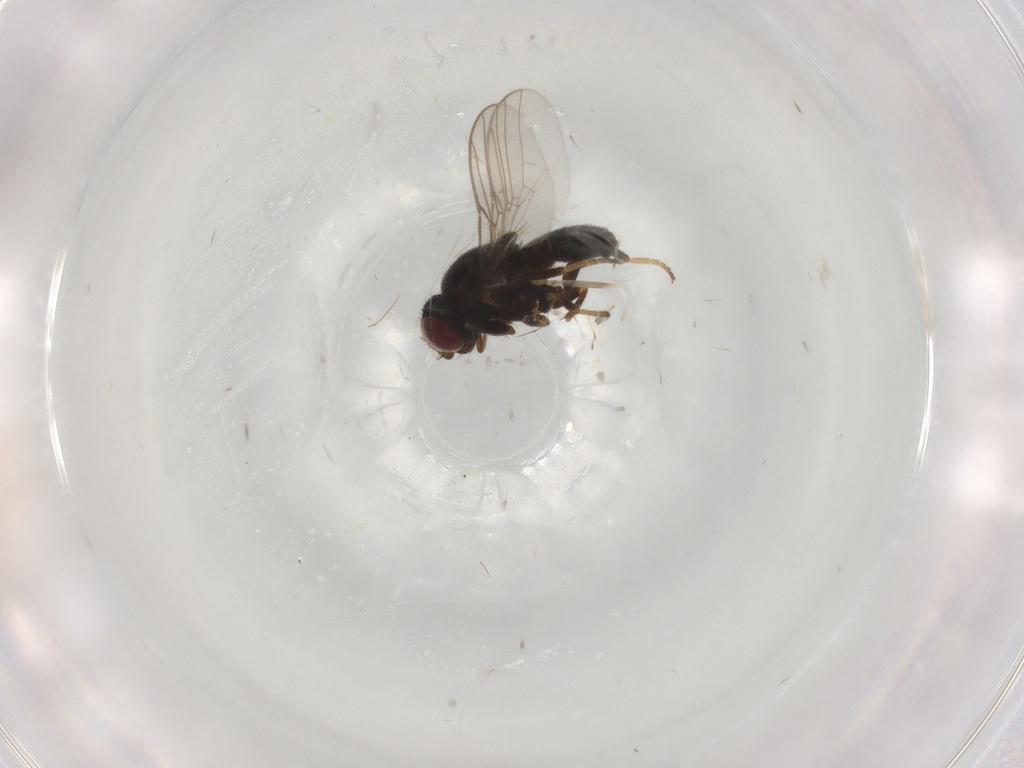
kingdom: Animalia
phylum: Arthropoda
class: Insecta
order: Diptera
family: Chloropidae
